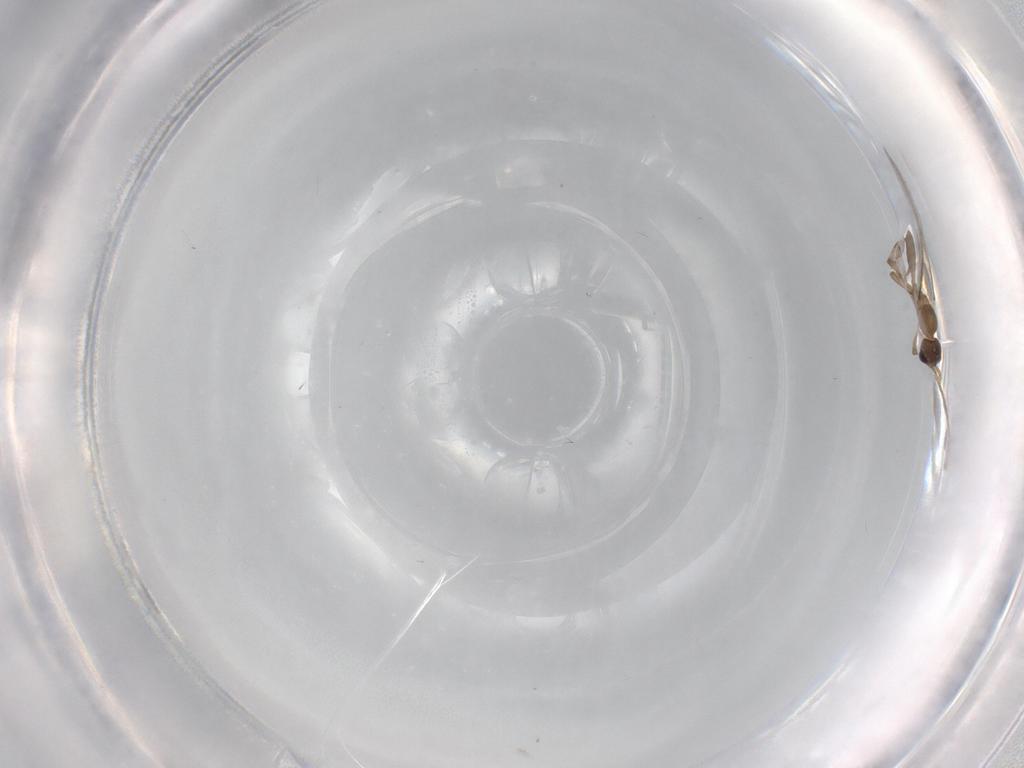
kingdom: Animalia
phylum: Arthropoda
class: Insecta
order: Hymenoptera
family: Formicidae
